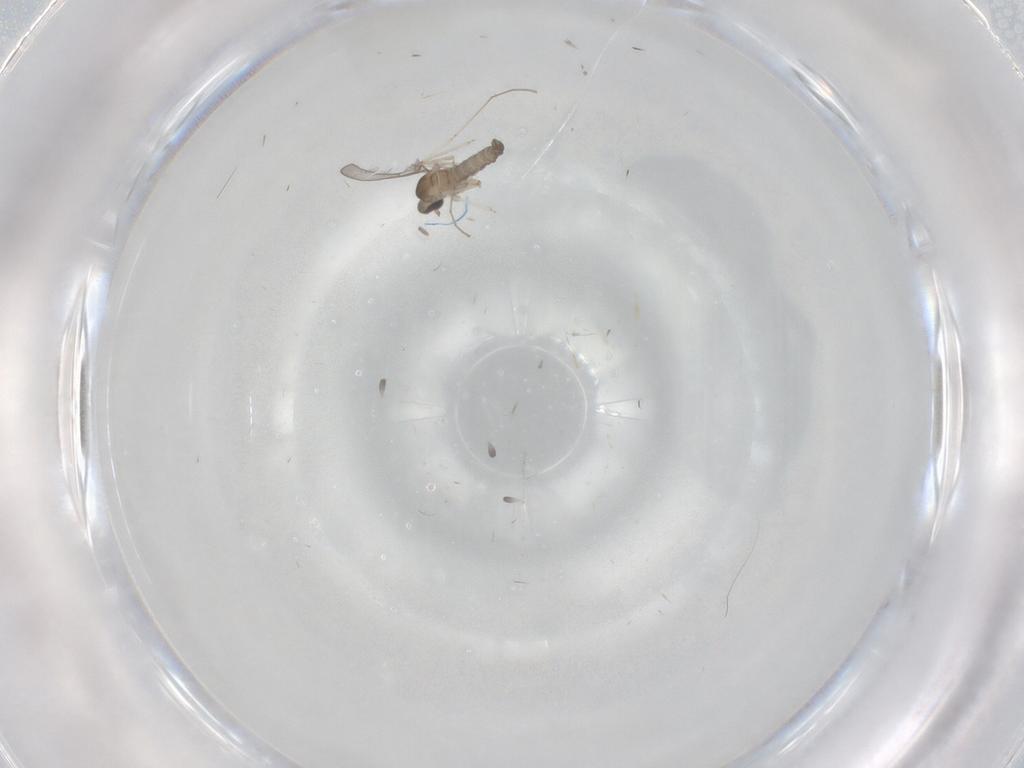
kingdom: Animalia
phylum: Arthropoda
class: Insecta
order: Diptera
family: Cecidomyiidae
